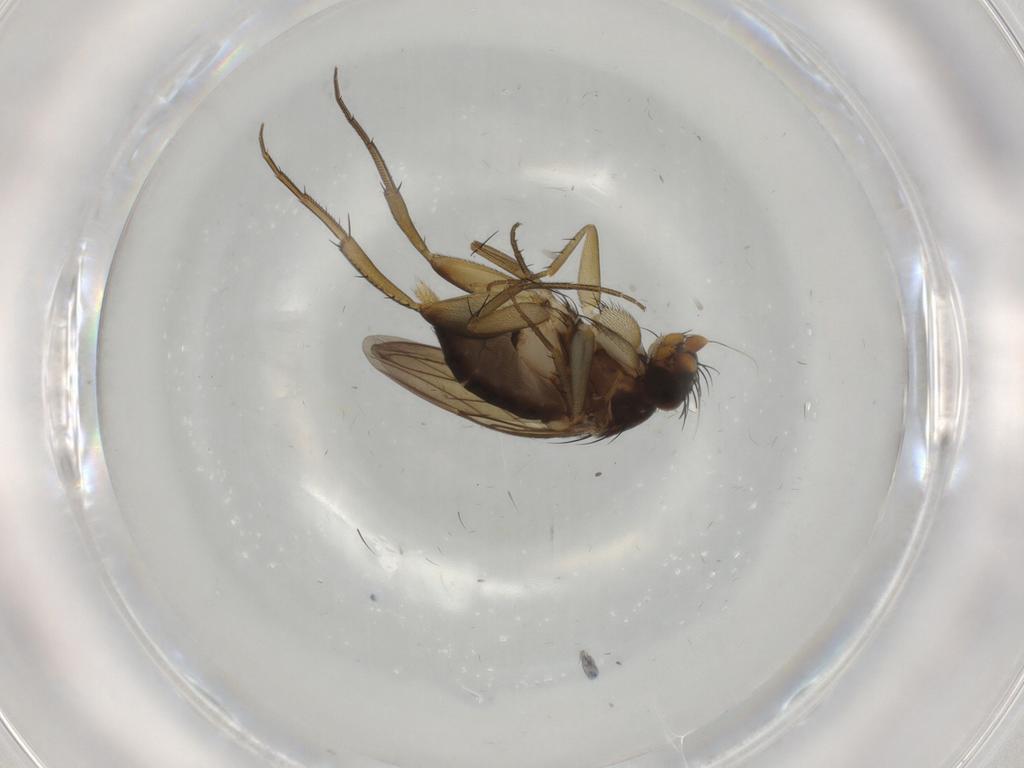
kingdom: Animalia
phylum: Arthropoda
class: Insecta
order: Diptera
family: Phoridae
